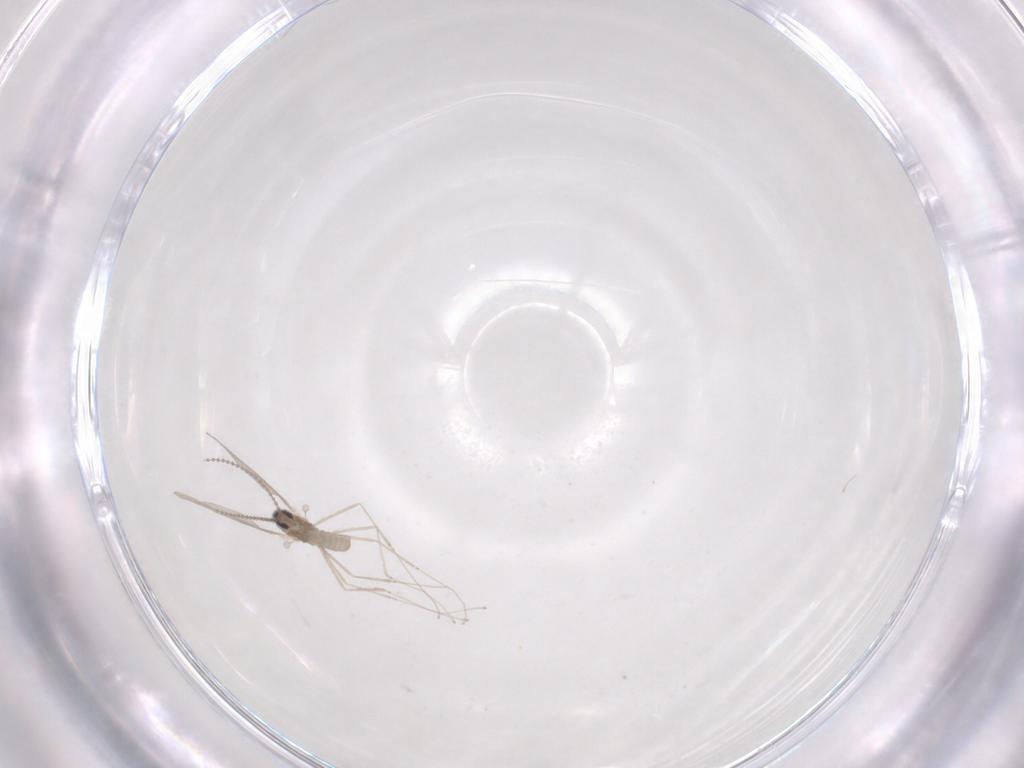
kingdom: Animalia
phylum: Arthropoda
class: Insecta
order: Diptera
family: Cecidomyiidae
